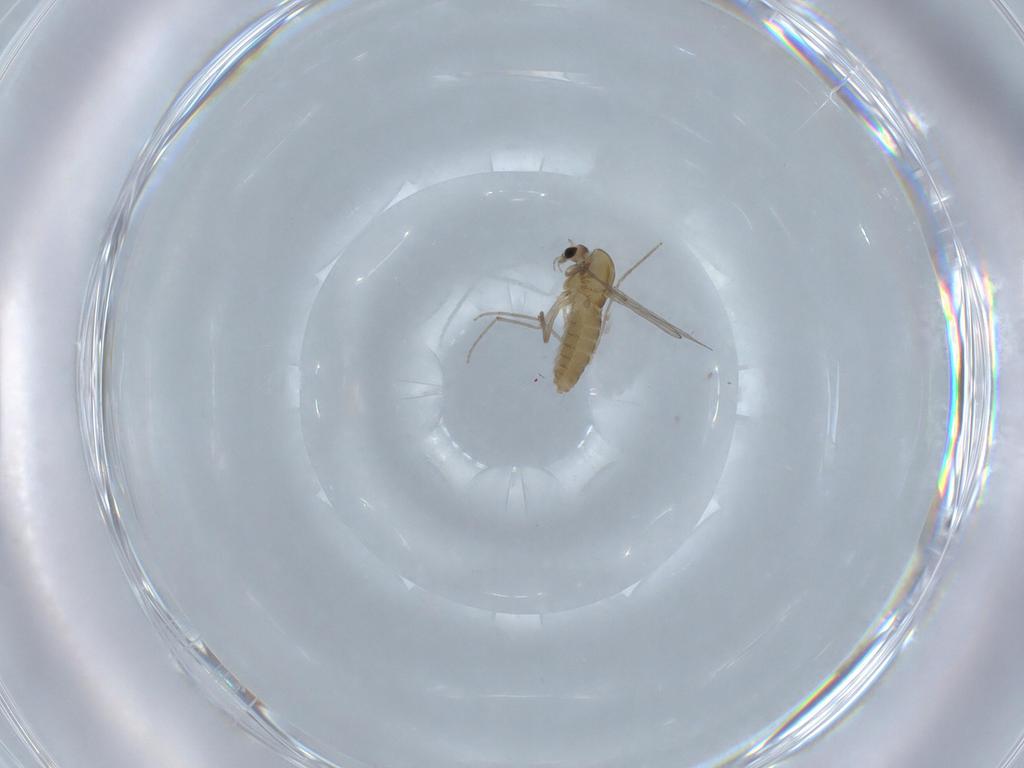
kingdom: Animalia
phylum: Arthropoda
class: Insecta
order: Diptera
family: Chironomidae
